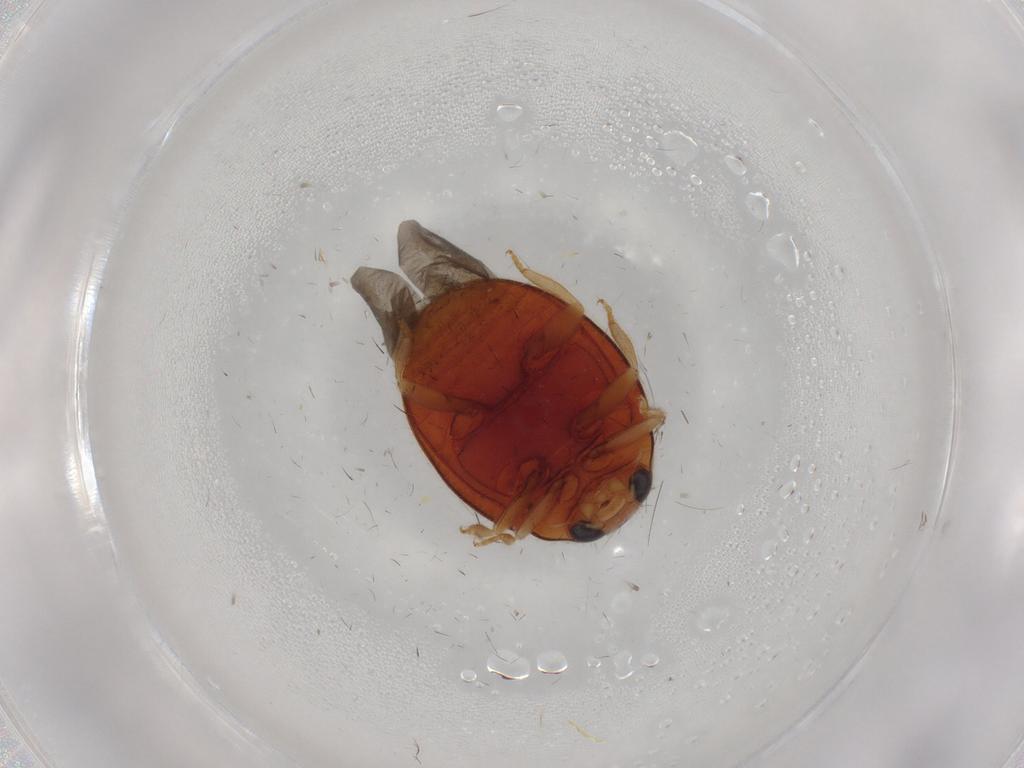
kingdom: Animalia
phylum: Arthropoda
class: Insecta
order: Coleoptera
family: Coccinellidae
